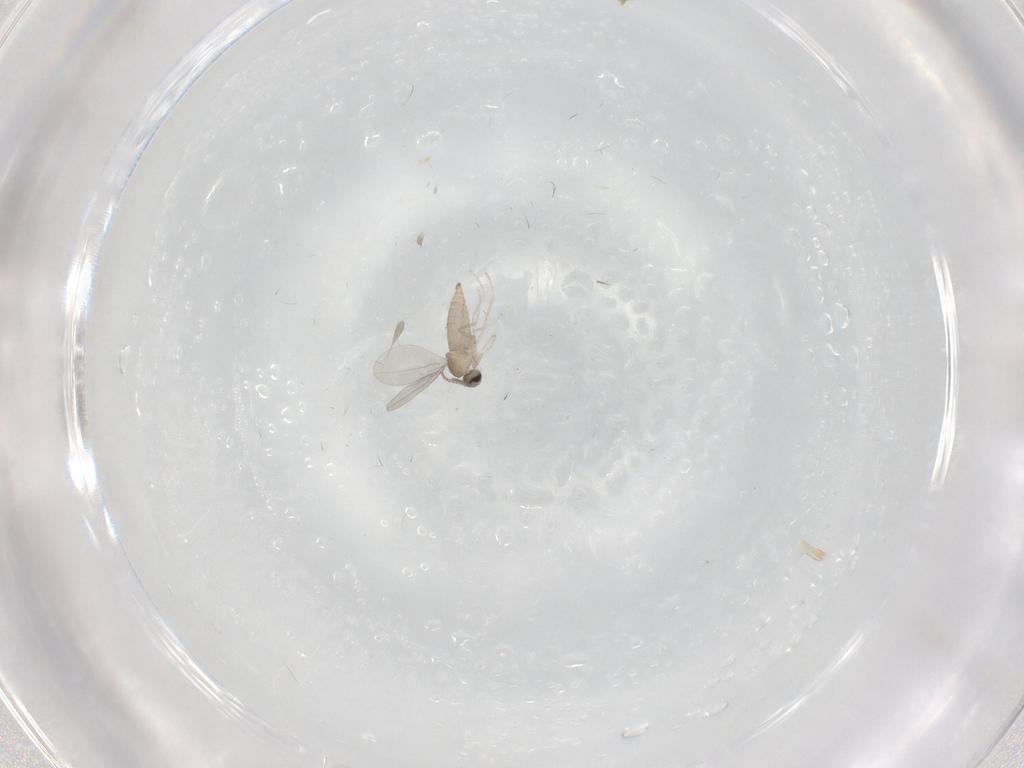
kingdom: Animalia
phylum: Arthropoda
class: Insecta
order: Diptera
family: Cecidomyiidae
